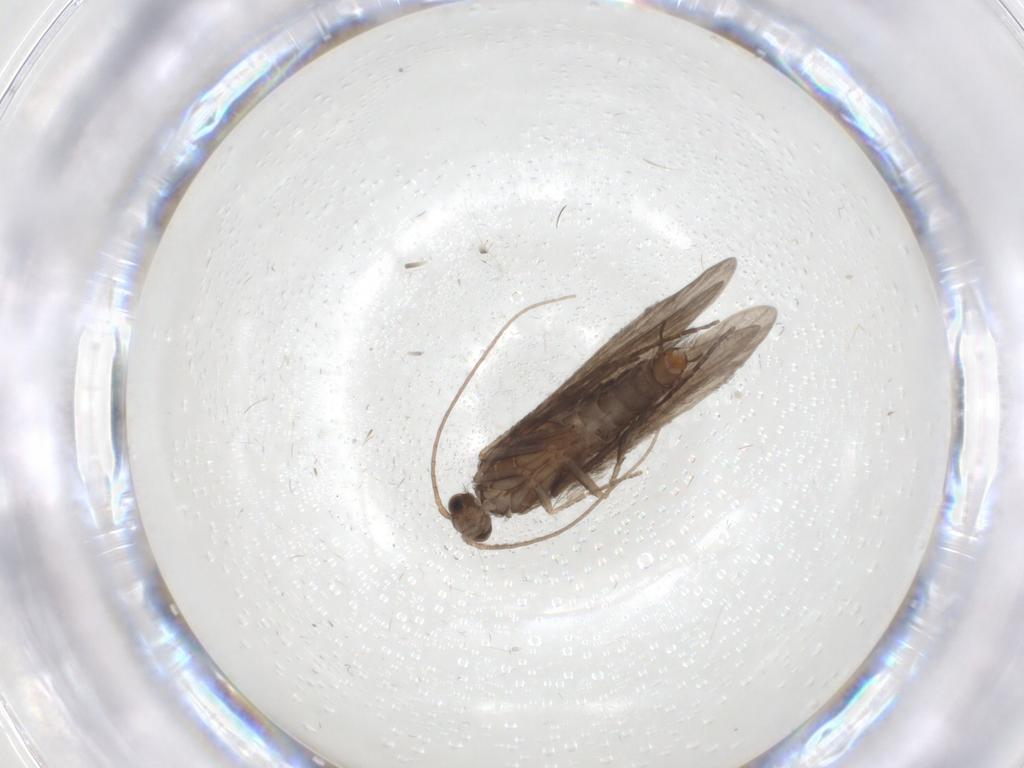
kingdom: Animalia
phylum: Arthropoda
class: Insecta
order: Trichoptera
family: Xiphocentronidae
